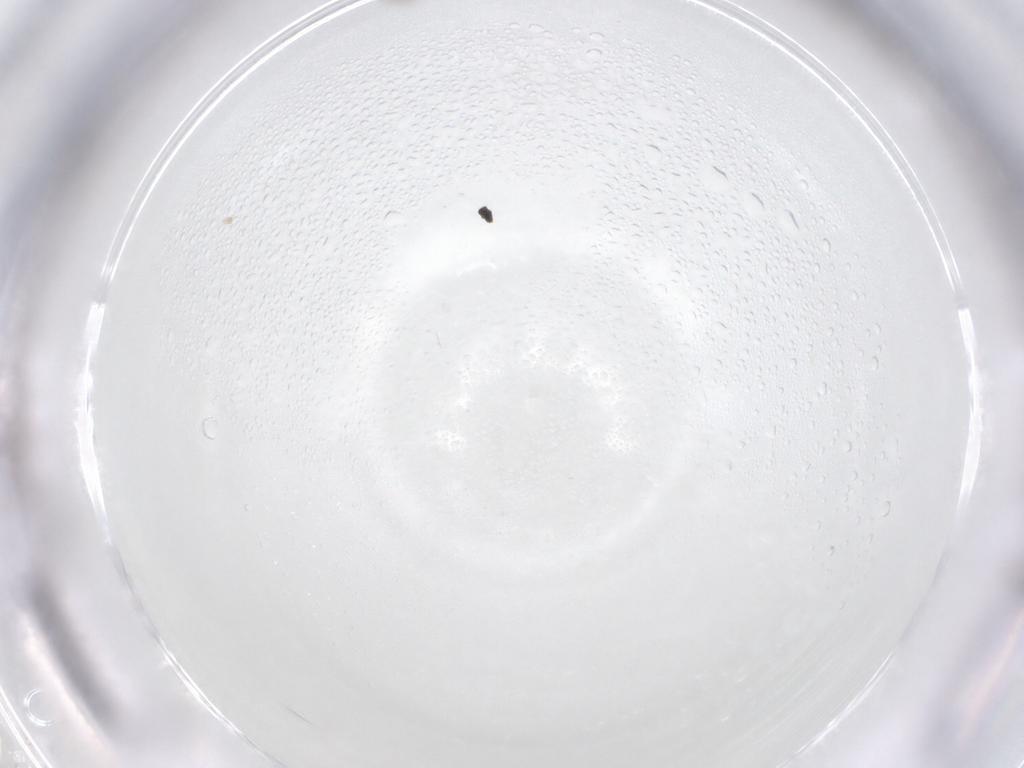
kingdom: Animalia
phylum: Arthropoda
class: Insecta
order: Diptera
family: Cecidomyiidae
